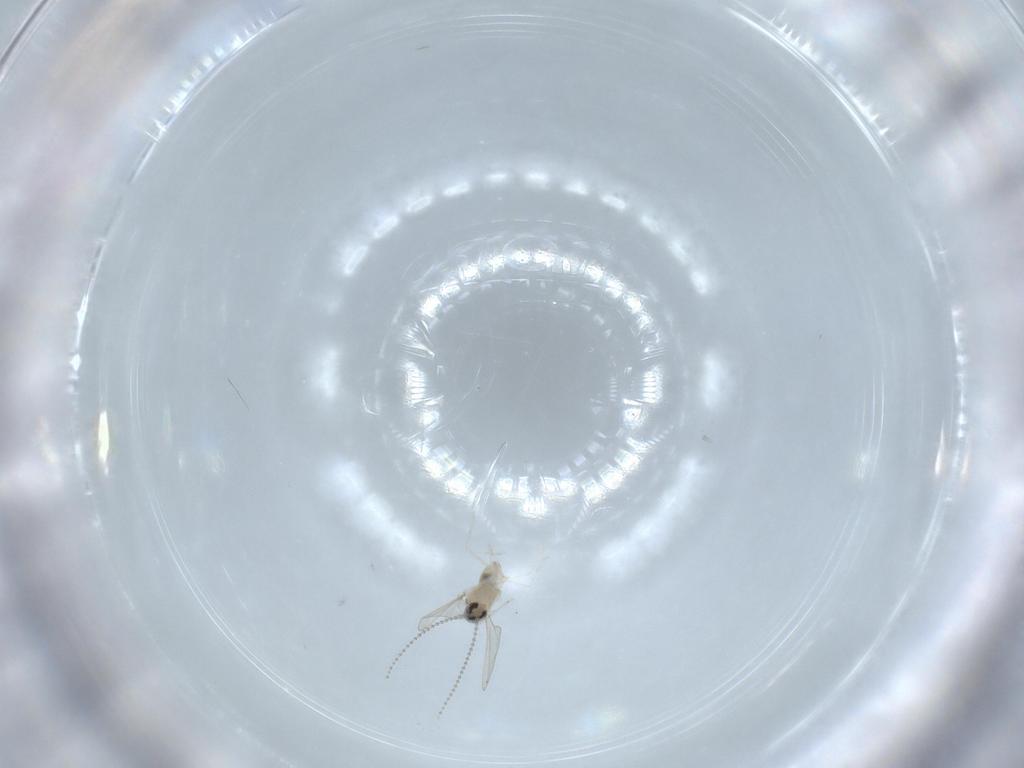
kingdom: Animalia
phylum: Arthropoda
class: Insecta
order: Diptera
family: Cecidomyiidae
